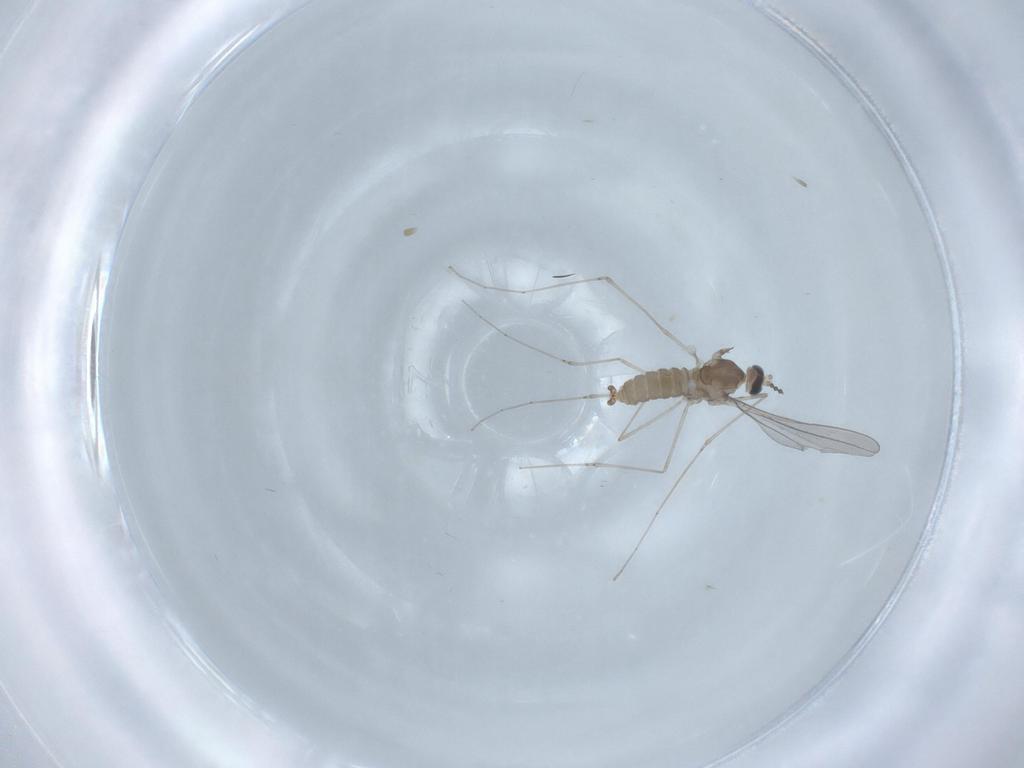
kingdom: Animalia
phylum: Arthropoda
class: Insecta
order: Diptera
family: Cecidomyiidae
